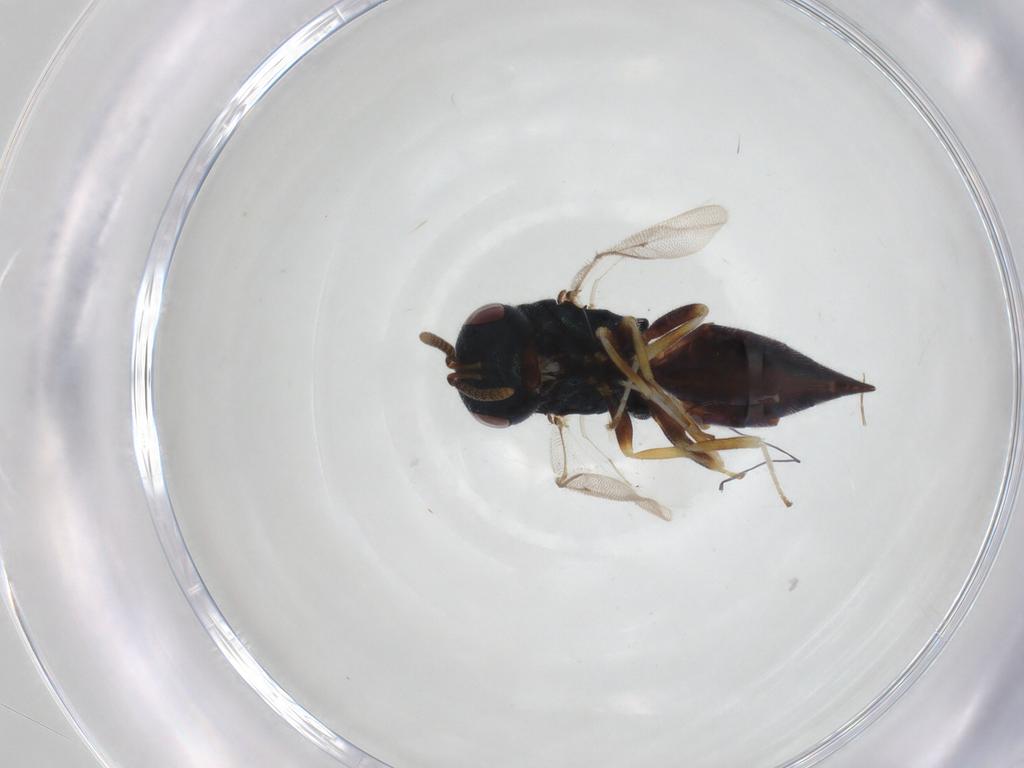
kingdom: Animalia
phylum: Arthropoda
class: Insecta
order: Hymenoptera
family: Pteromalidae
